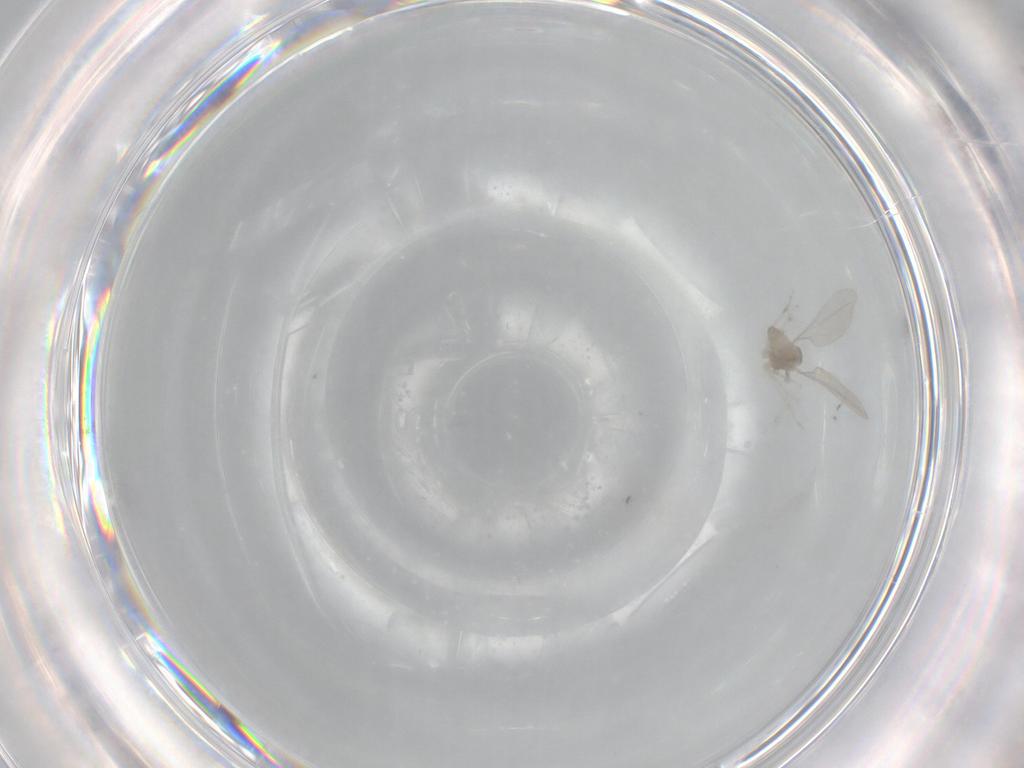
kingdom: Animalia
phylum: Arthropoda
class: Insecta
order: Diptera
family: Cecidomyiidae
